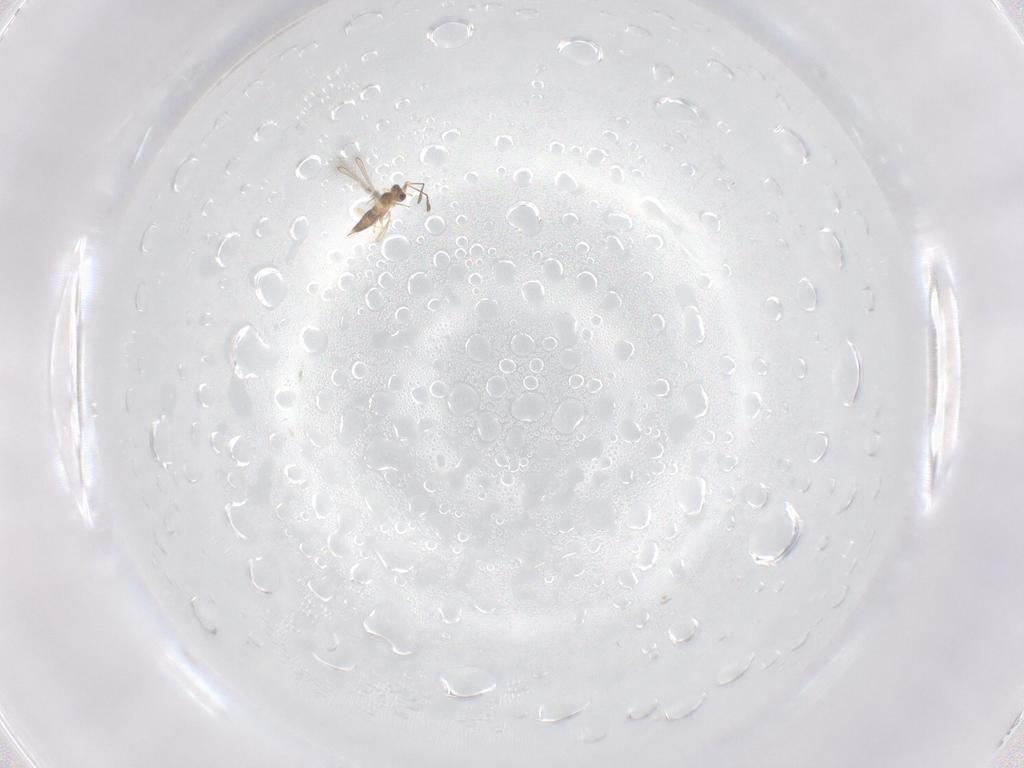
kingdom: Animalia
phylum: Arthropoda
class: Insecta
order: Hymenoptera
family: Mymaridae
